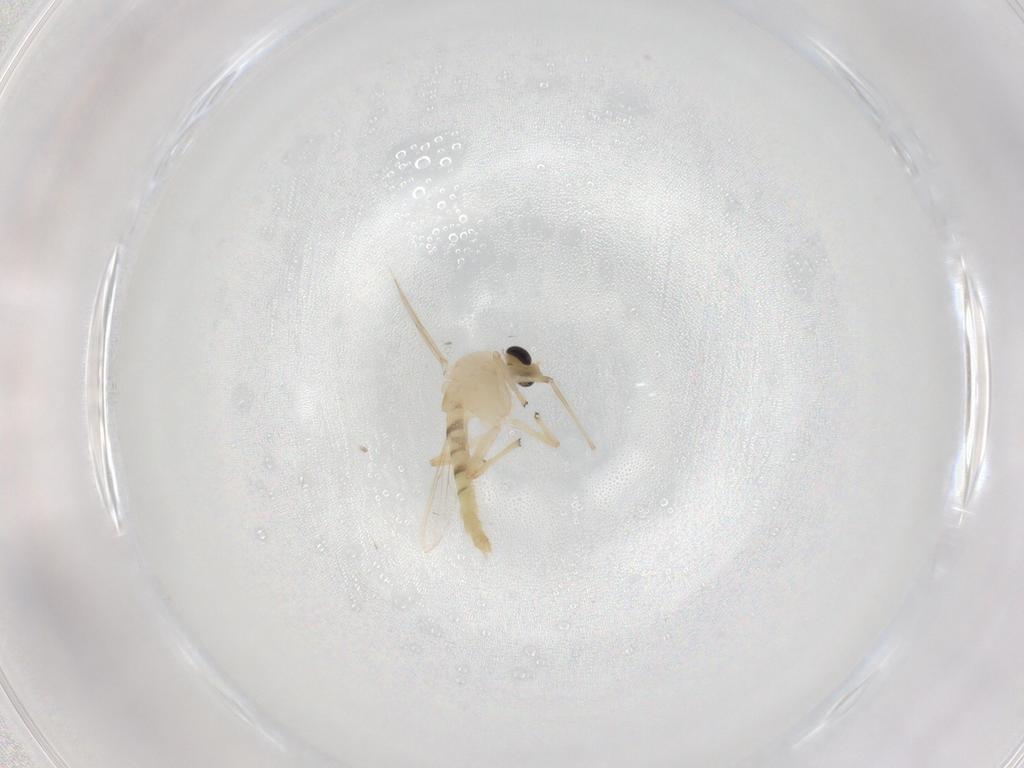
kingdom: Animalia
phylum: Arthropoda
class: Insecta
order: Diptera
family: Chironomidae
